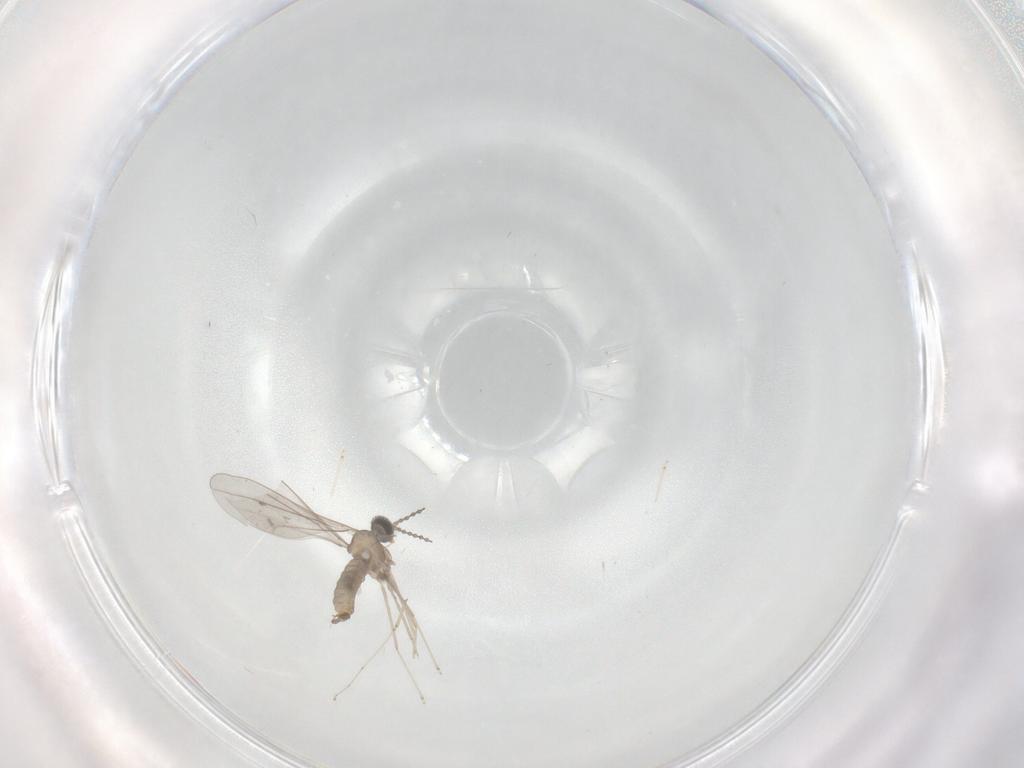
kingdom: Animalia
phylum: Arthropoda
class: Insecta
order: Diptera
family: Cecidomyiidae
